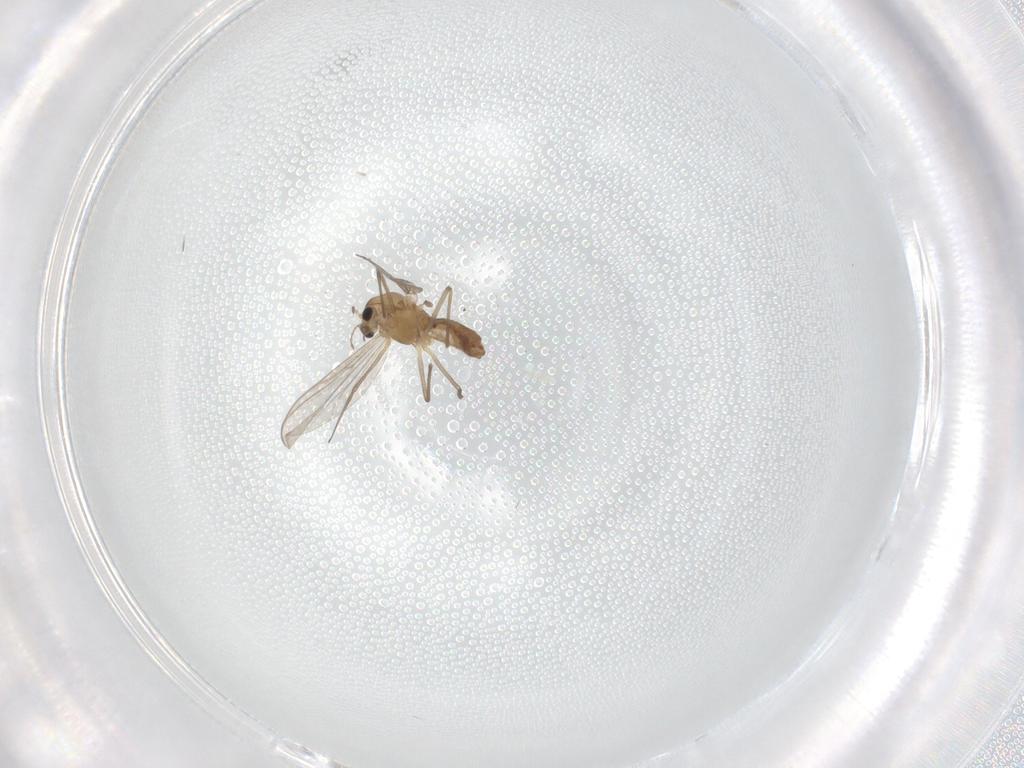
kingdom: Animalia
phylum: Arthropoda
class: Insecta
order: Diptera
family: Chironomidae
